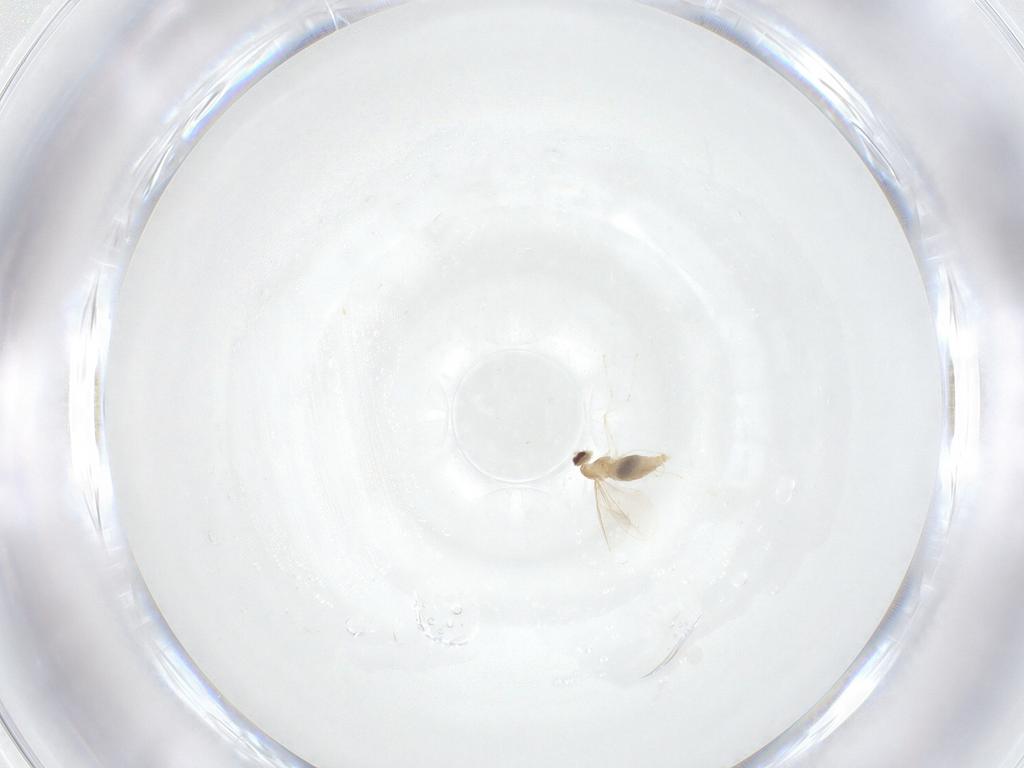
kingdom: Animalia
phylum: Arthropoda
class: Insecta
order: Diptera
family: Cecidomyiidae
